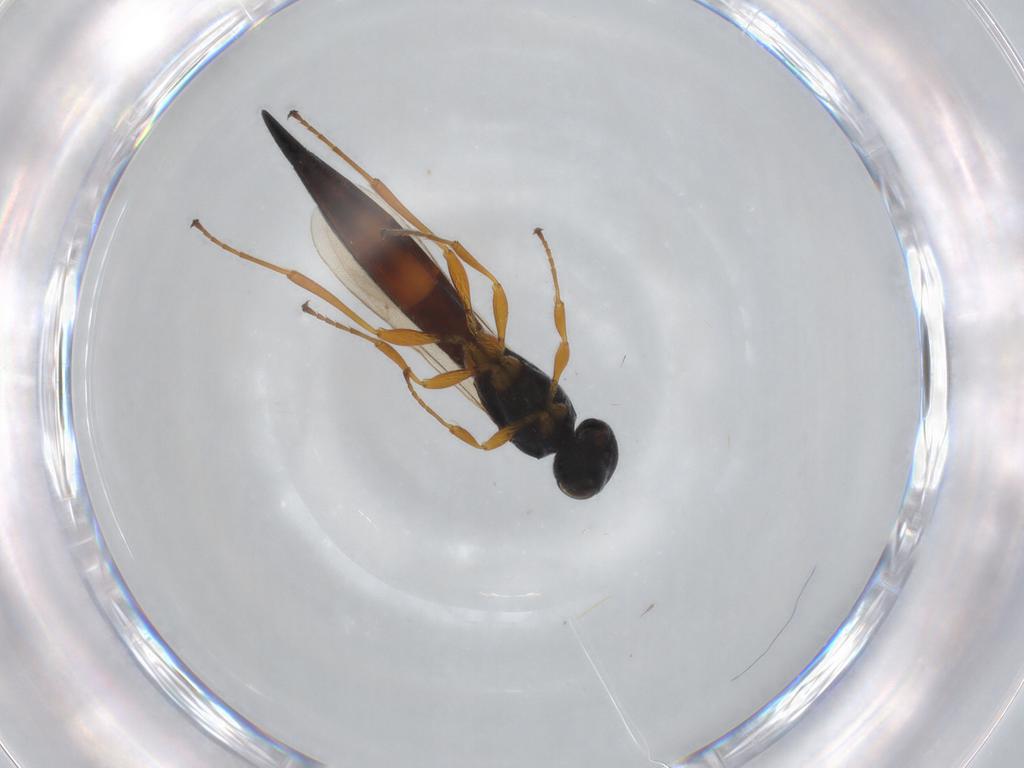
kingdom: Animalia
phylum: Arthropoda
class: Insecta
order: Hymenoptera
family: Scelionidae
